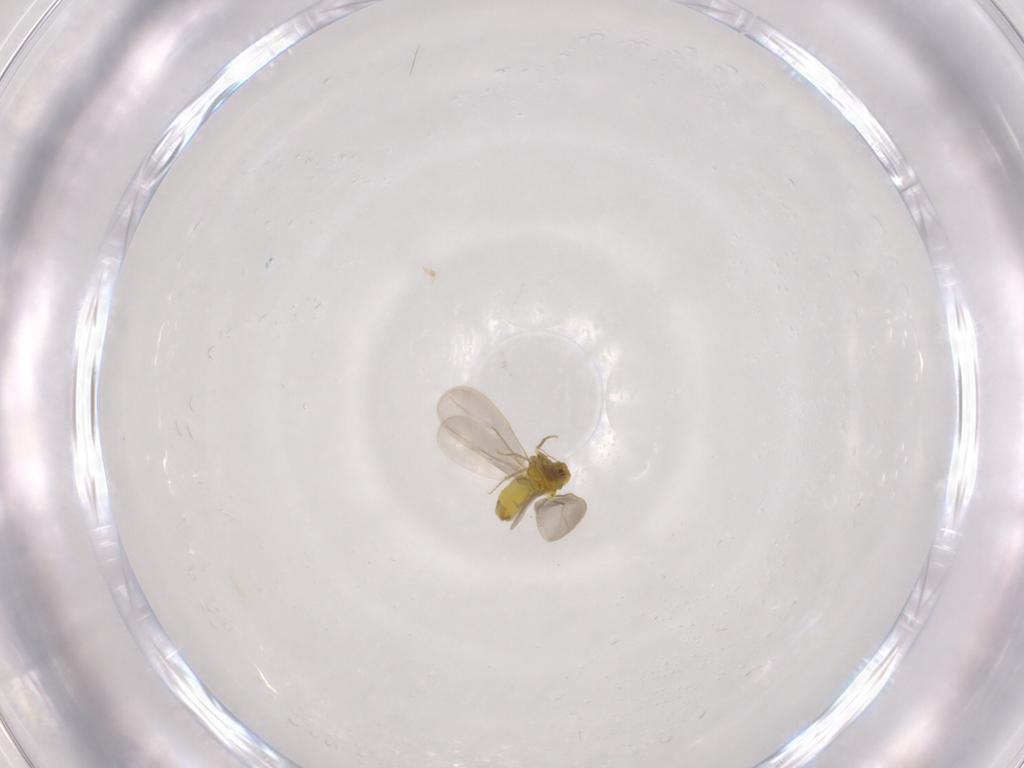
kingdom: Animalia
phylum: Arthropoda
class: Insecta
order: Hemiptera
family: Aleyrodidae
